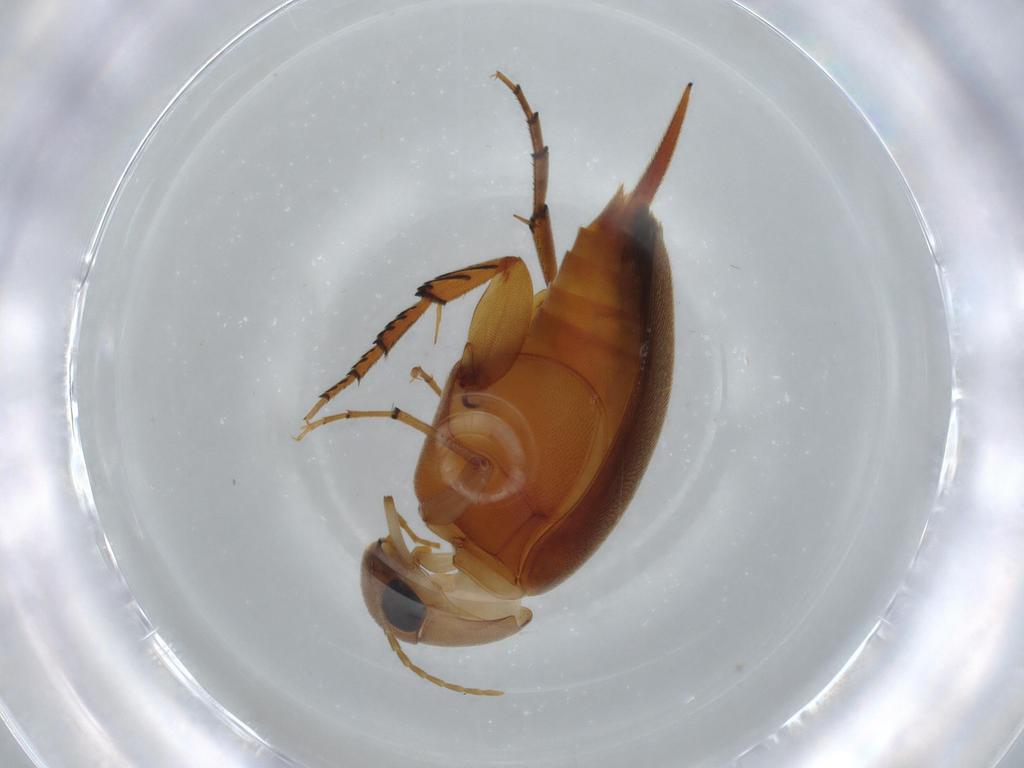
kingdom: Animalia
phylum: Arthropoda
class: Insecta
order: Coleoptera
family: Mordellidae
